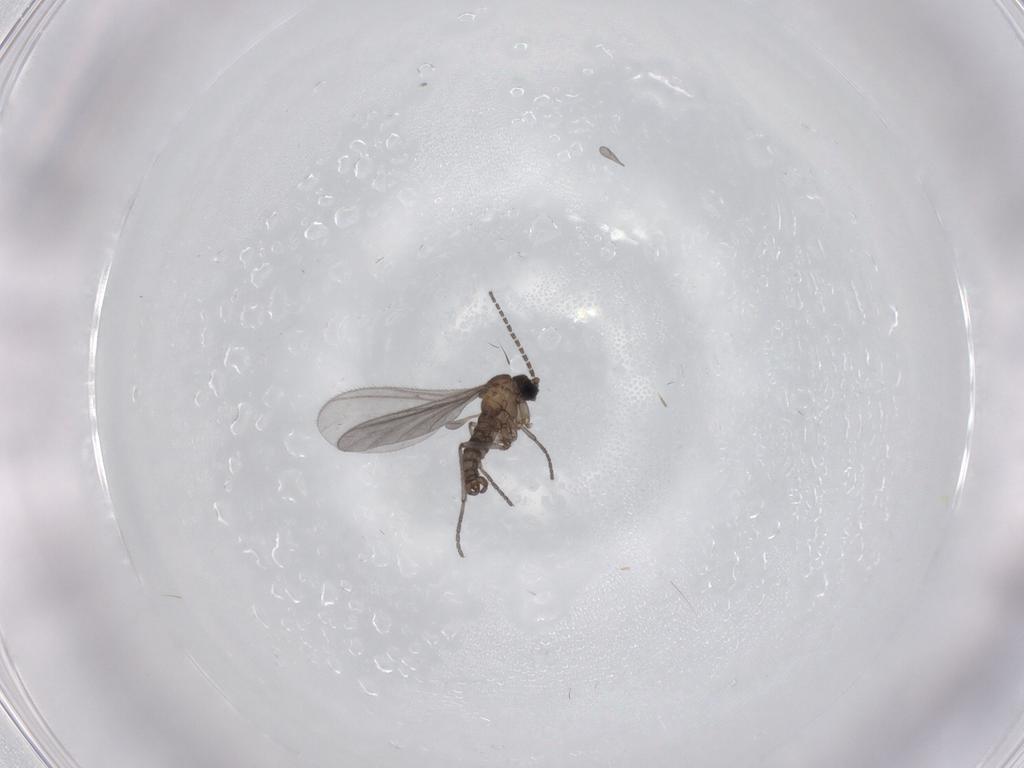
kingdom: Animalia
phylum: Arthropoda
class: Insecta
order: Diptera
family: Sciaridae
